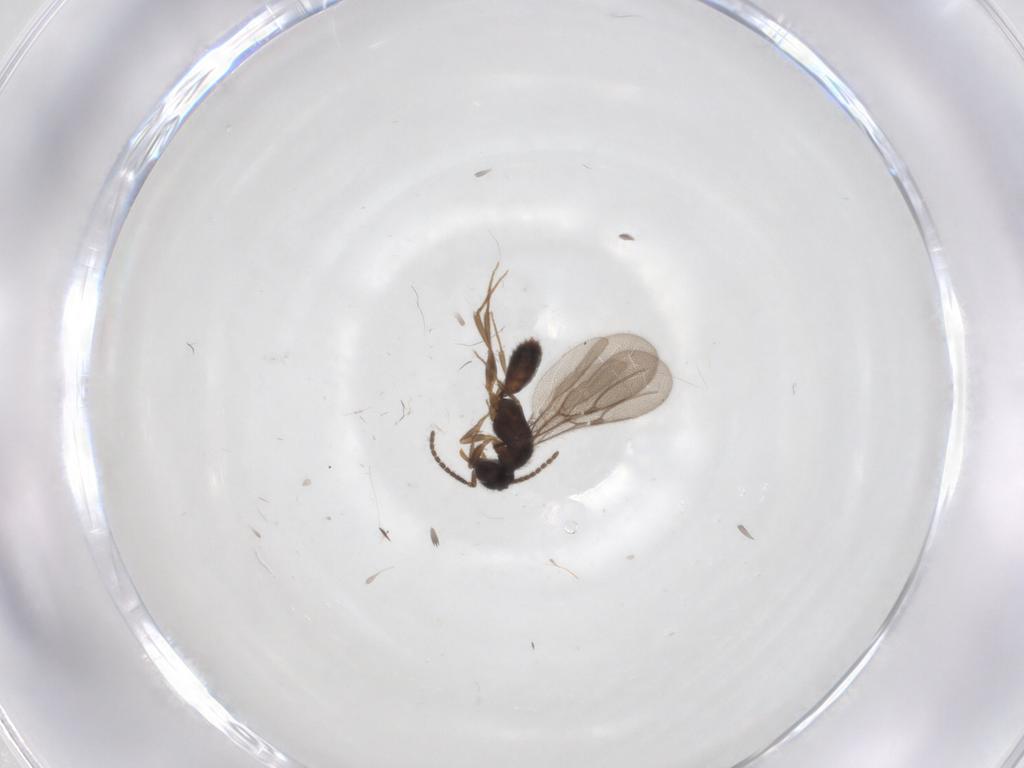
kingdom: Animalia
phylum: Arthropoda
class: Insecta
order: Hymenoptera
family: Bethylidae
